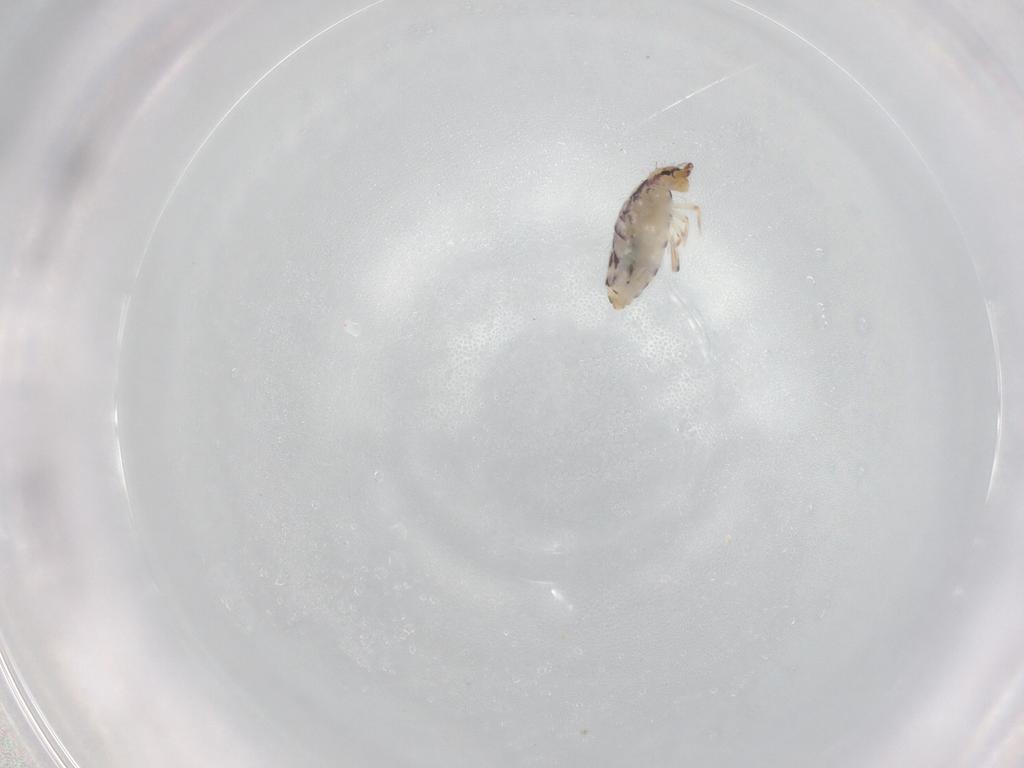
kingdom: Animalia
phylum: Arthropoda
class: Collembola
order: Entomobryomorpha
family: Entomobryidae
